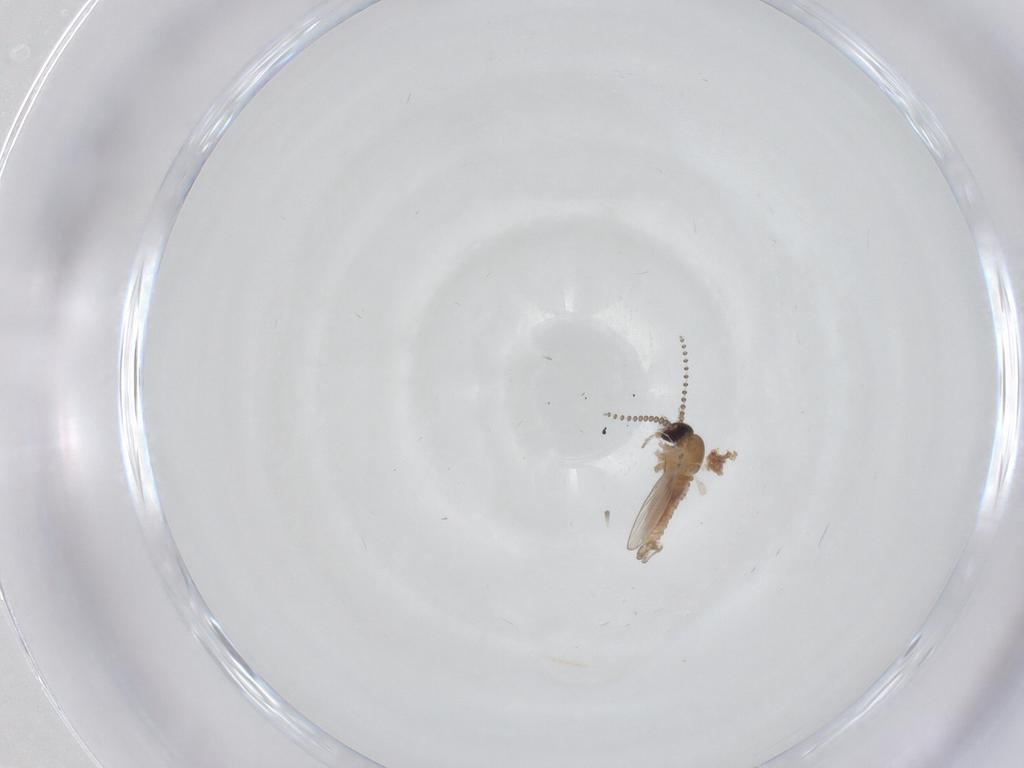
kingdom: Animalia
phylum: Arthropoda
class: Insecta
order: Diptera
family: Psychodidae
